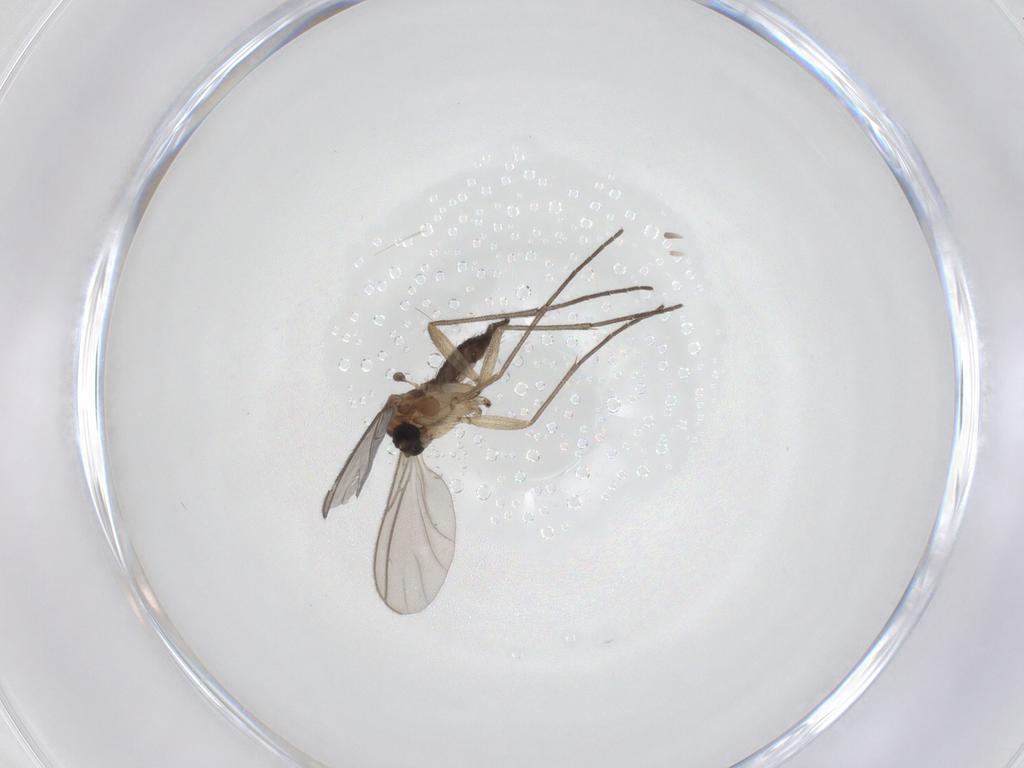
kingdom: Animalia
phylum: Arthropoda
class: Insecta
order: Diptera
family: Sciaridae
